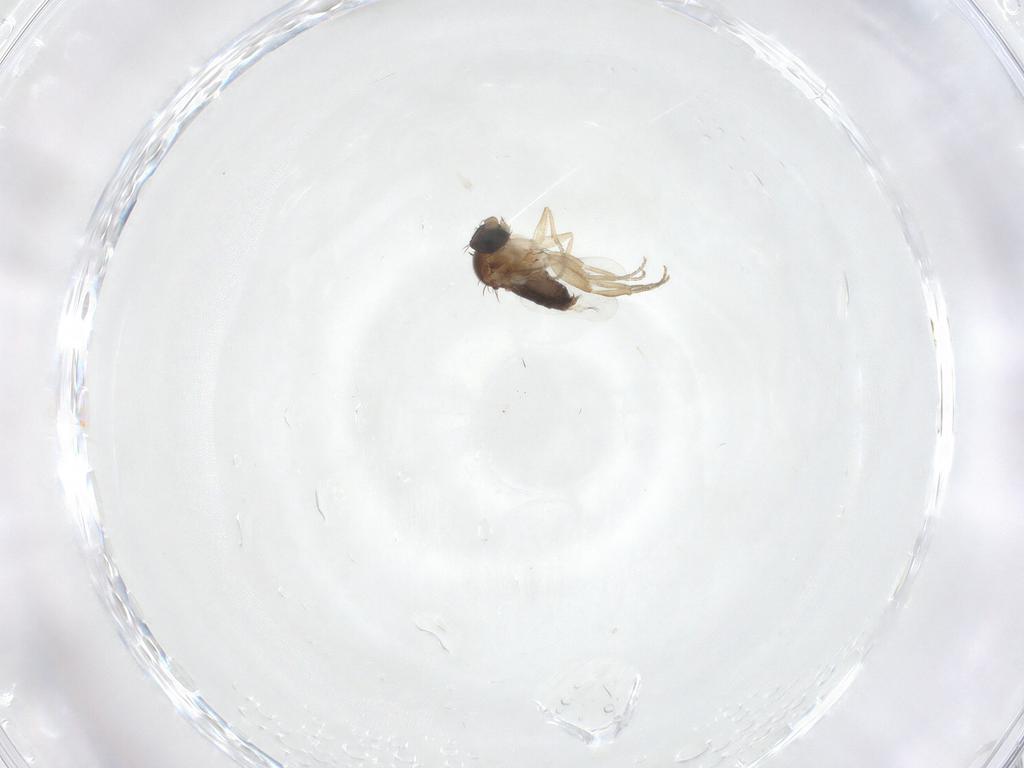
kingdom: Animalia
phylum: Arthropoda
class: Insecta
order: Diptera
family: Phoridae
